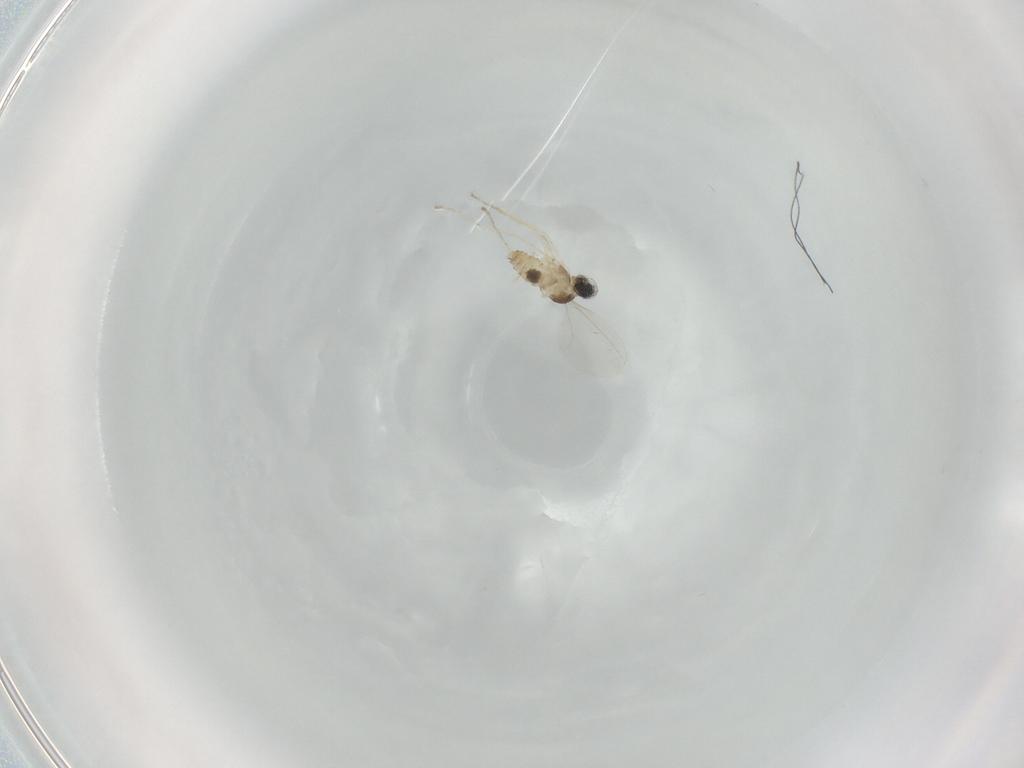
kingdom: Animalia
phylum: Arthropoda
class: Insecta
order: Diptera
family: Cecidomyiidae
